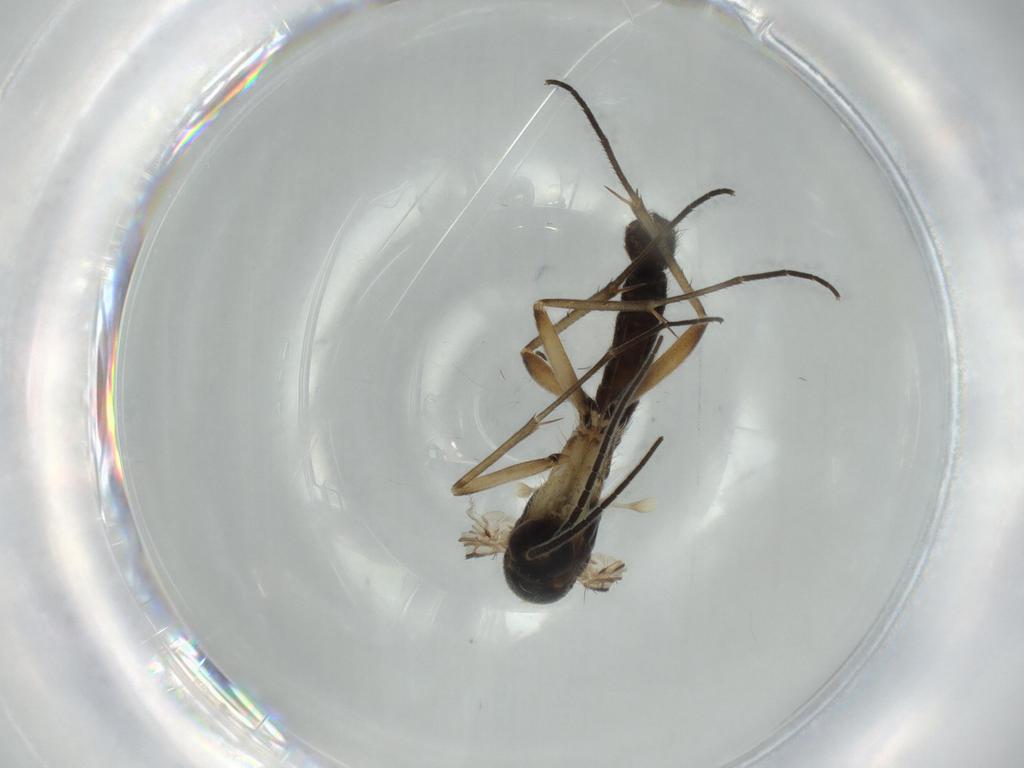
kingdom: Animalia
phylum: Arthropoda
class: Insecta
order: Diptera
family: Phoridae
